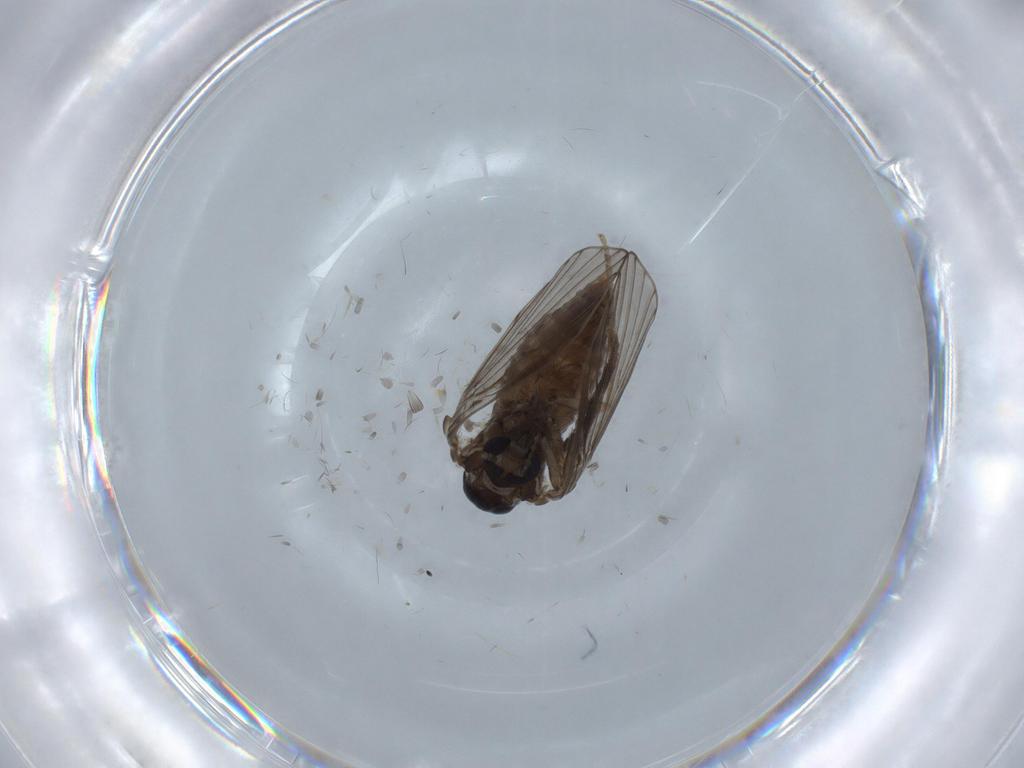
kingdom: Animalia
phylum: Arthropoda
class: Insecta
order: Diptera
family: Psychodidae
